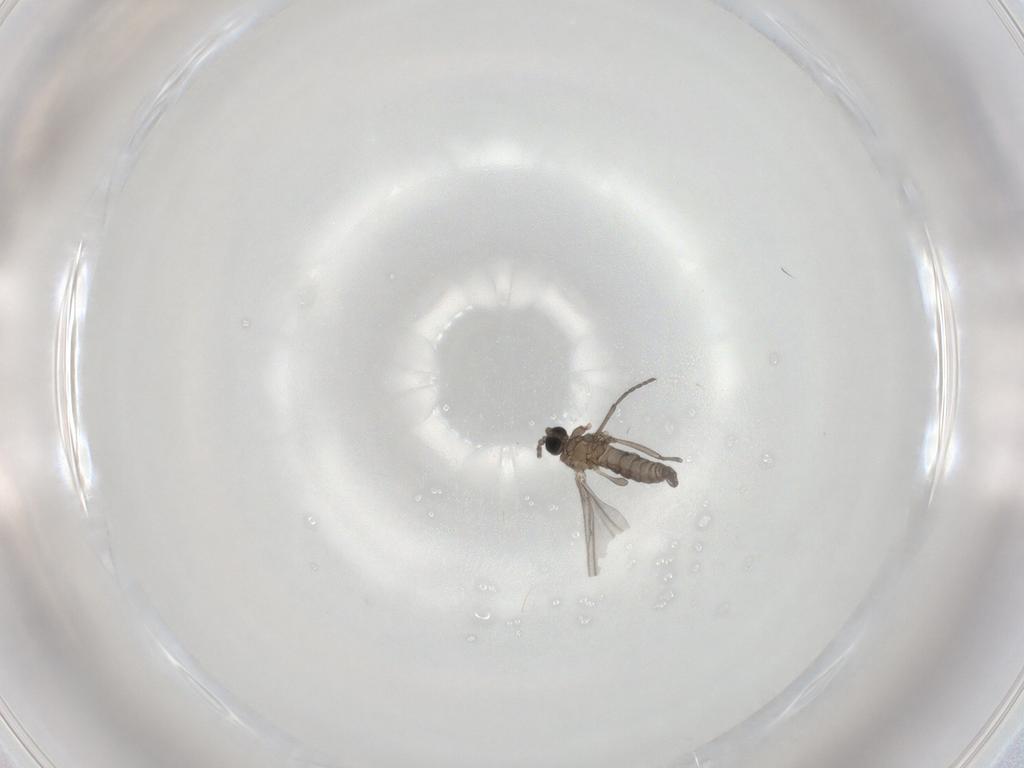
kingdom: Animalia
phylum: Arthropoda
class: Insecta
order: Diptera
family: Sciaridae
